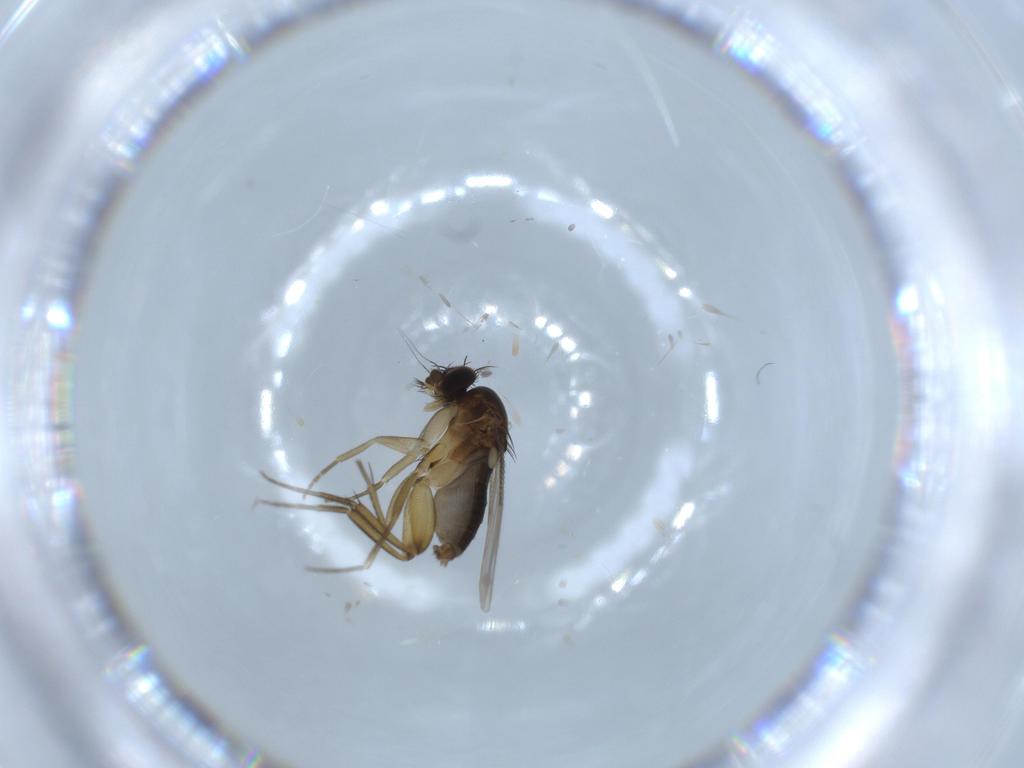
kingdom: Animalia
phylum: Arthropoda
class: Insecta
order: Diptera
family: Phoridae
